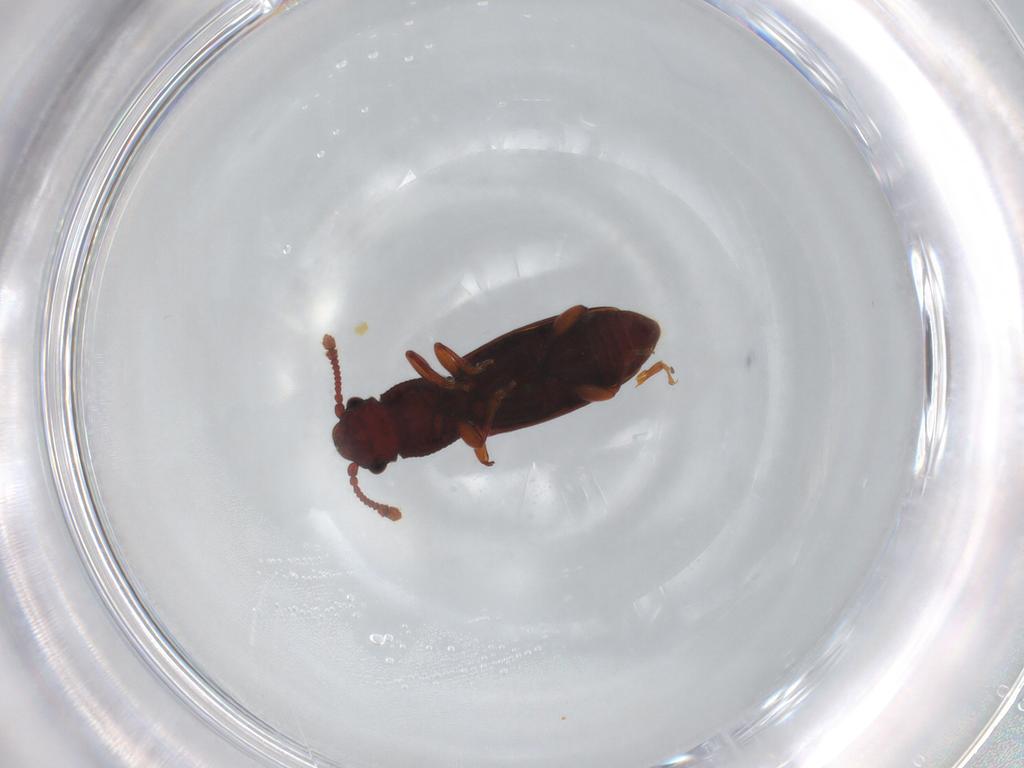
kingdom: Animalia
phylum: Arthropoda
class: Insecta
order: Coleoptera
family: Monotomidae
